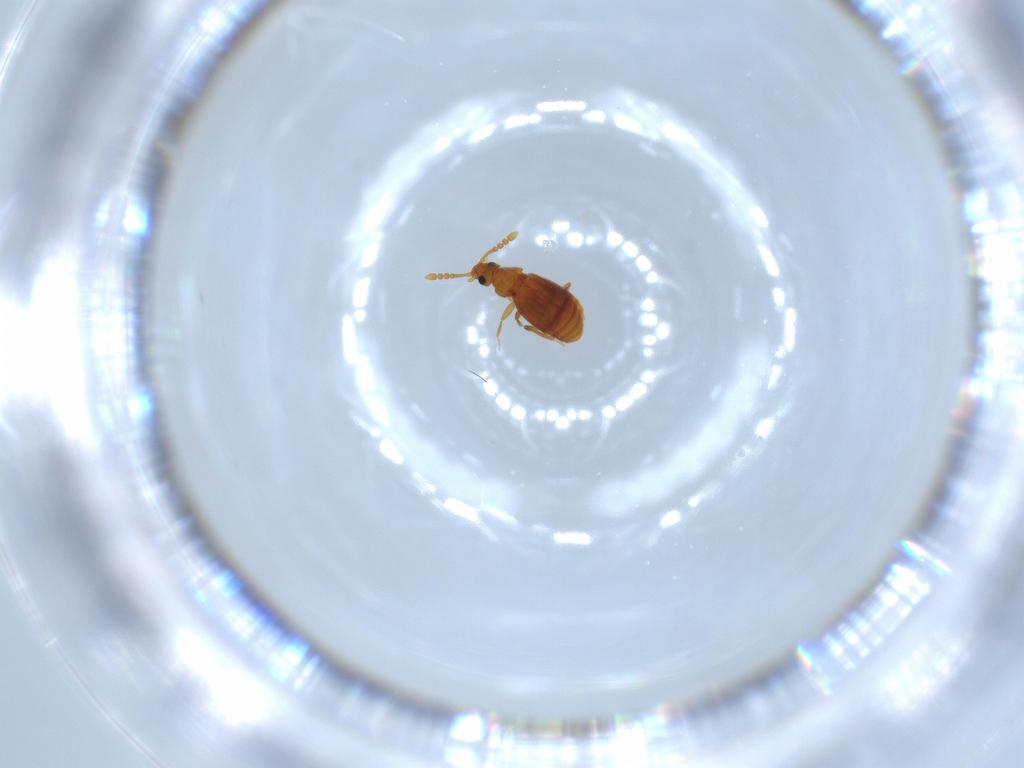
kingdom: Animalia
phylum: Arthropoda
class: Insecta
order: Coleoptera
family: Staphylinidae
